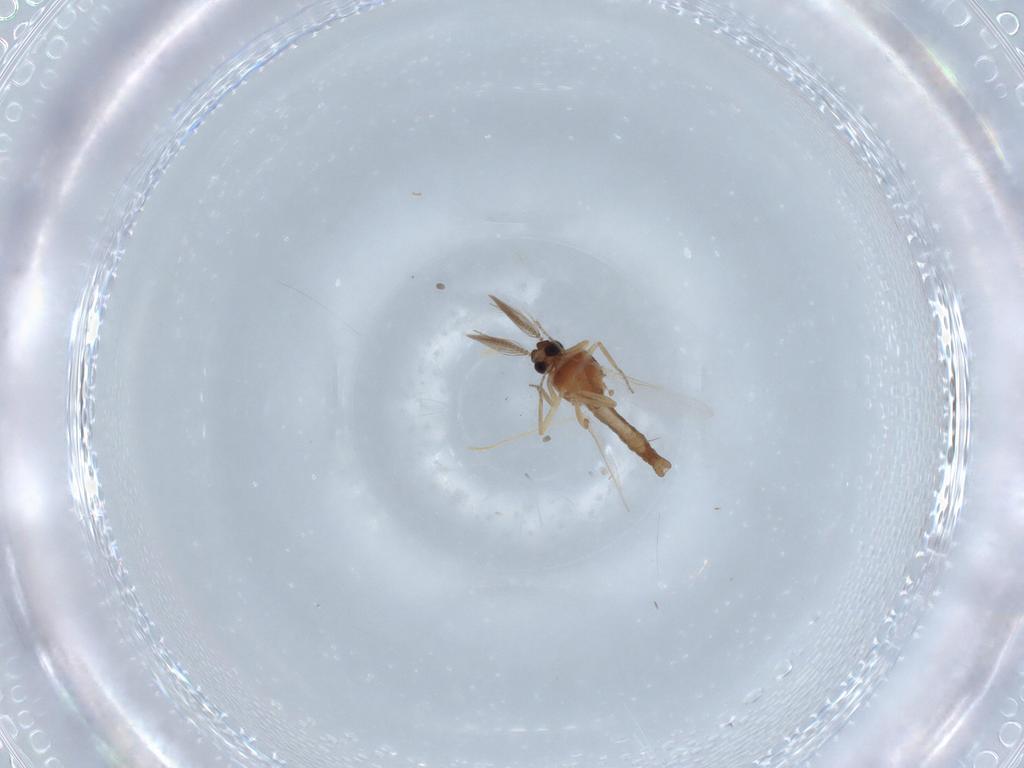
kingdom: Animalia
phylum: Arthropoda
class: Insecta
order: Diptera
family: Ceratopogonidae
